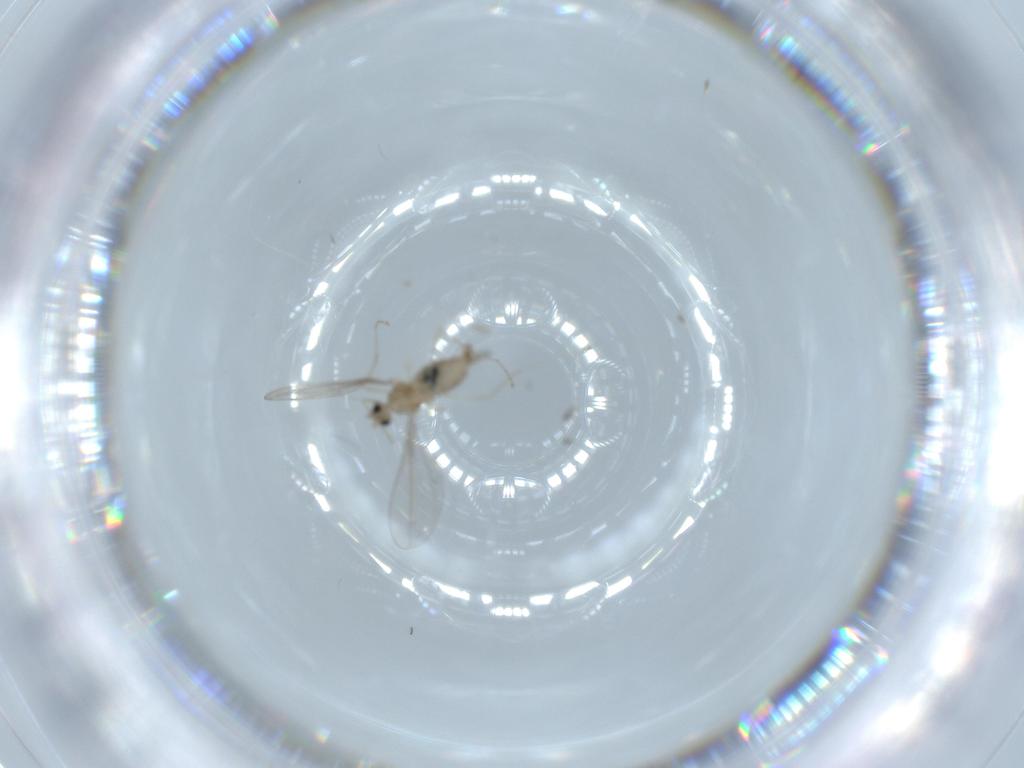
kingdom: Animalia
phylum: Arthropoda
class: Insecta
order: Diptera
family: Cecidomyiidae
